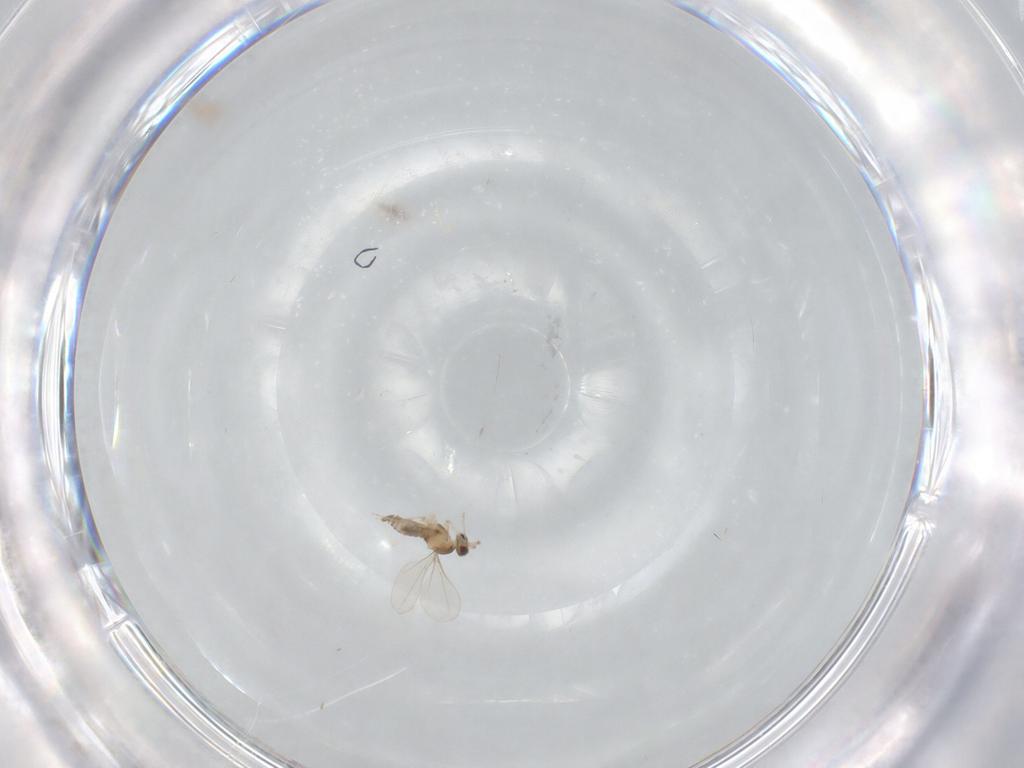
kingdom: Animalia
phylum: Arthropoda
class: Insecta
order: Diptera
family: Cecidomyiidae
